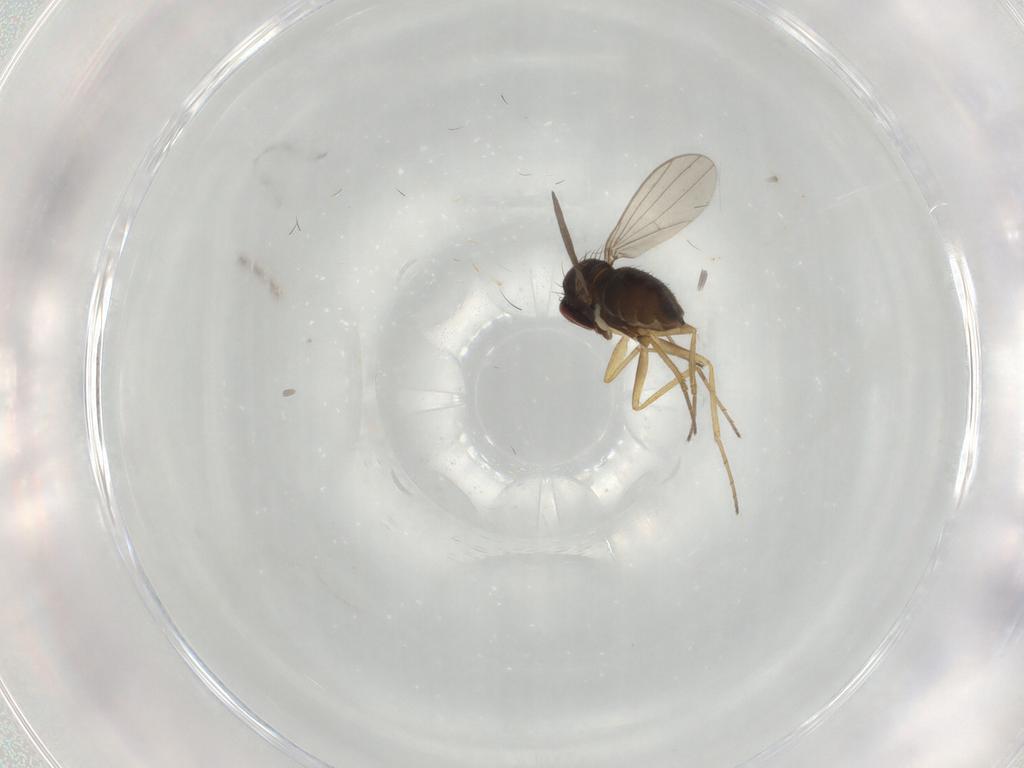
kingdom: Animalia
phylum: Arthropoda
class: Insecta
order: Diptera
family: Dolichopodidae
